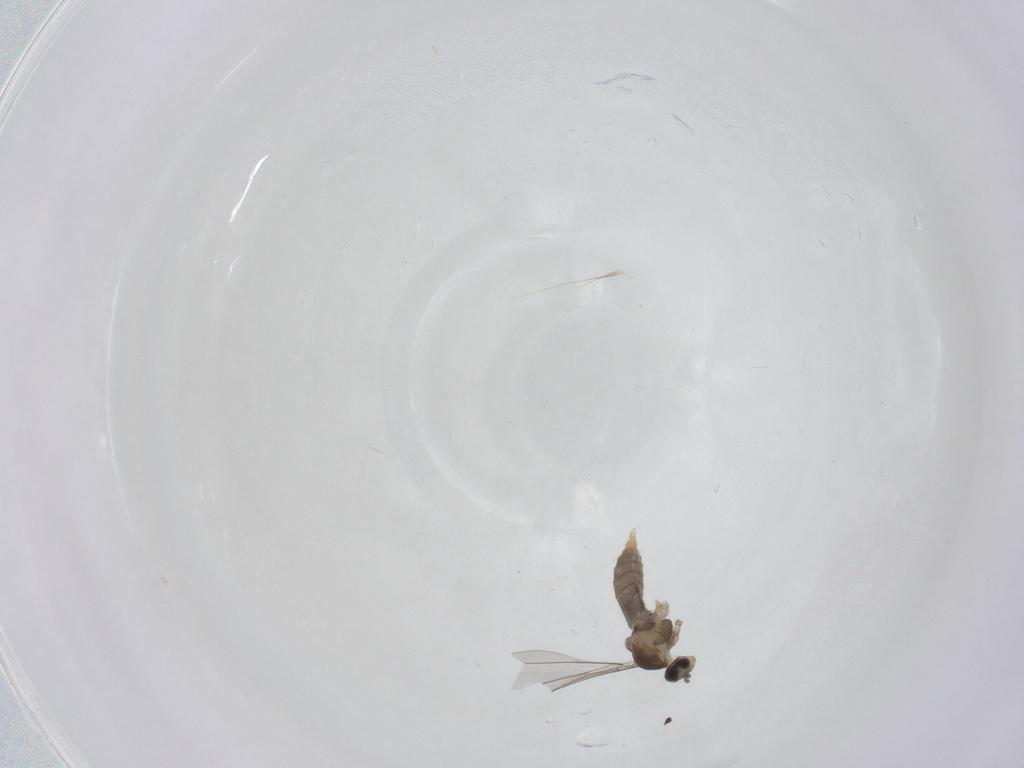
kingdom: Animalia
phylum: Arthropoda
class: Insecta
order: Diptera
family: Cecidomyiidae
